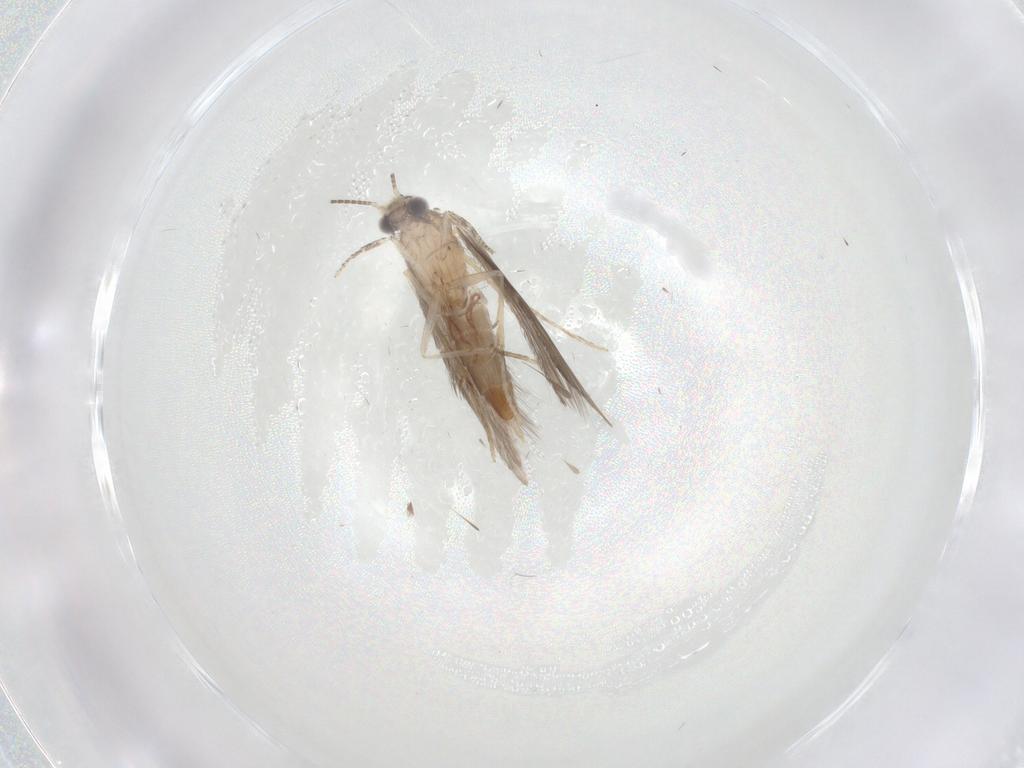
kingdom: Animalia
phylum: Arthropoda
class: Insecta
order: Trichoptera
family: Hydroptilidae
